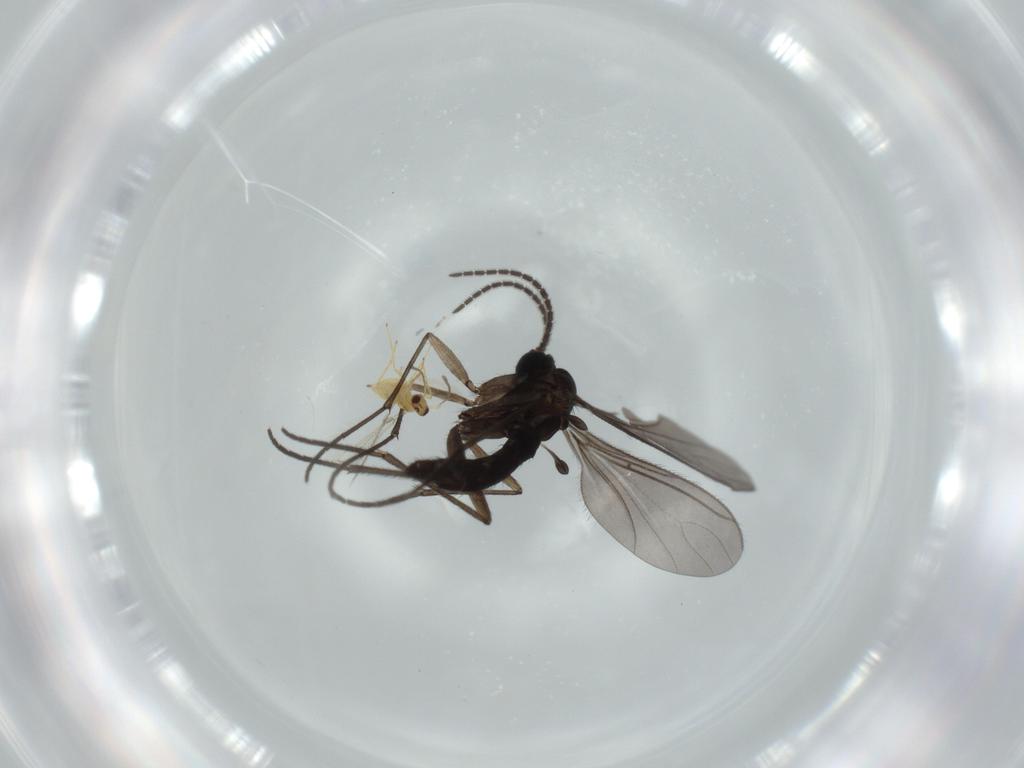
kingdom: Animalia
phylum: Arthropoda
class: Insecta
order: Diptera
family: Sciaridae
